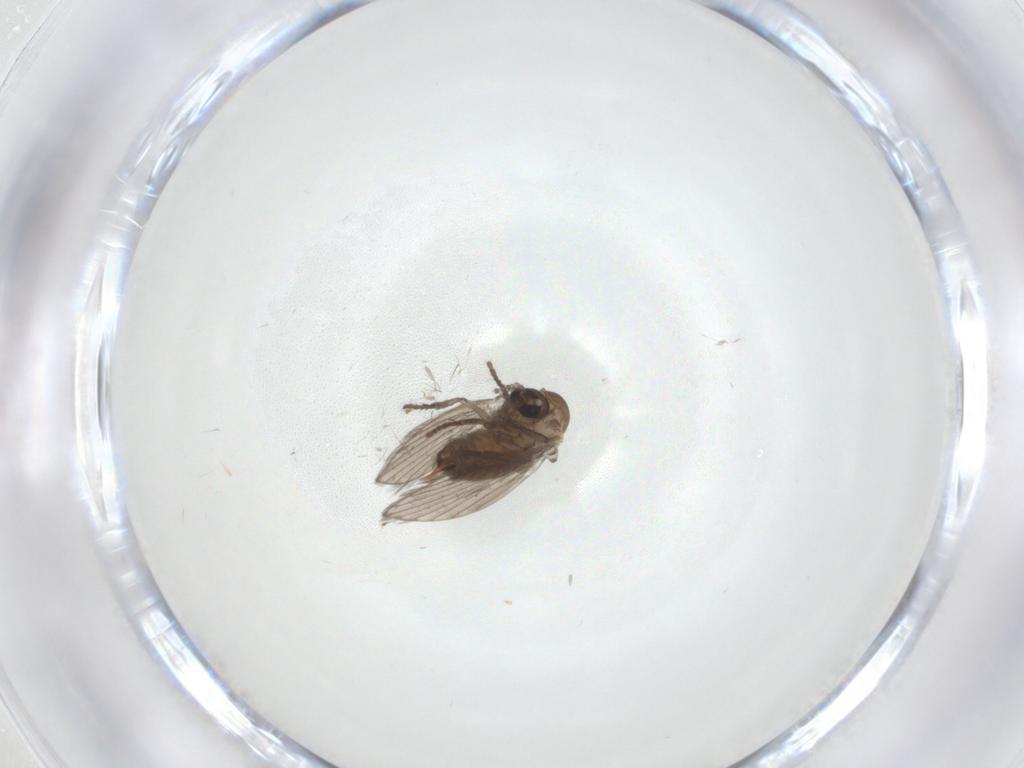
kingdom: Animalia
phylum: Arthropoda
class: Insecta
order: Diptera
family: Psychodidae
